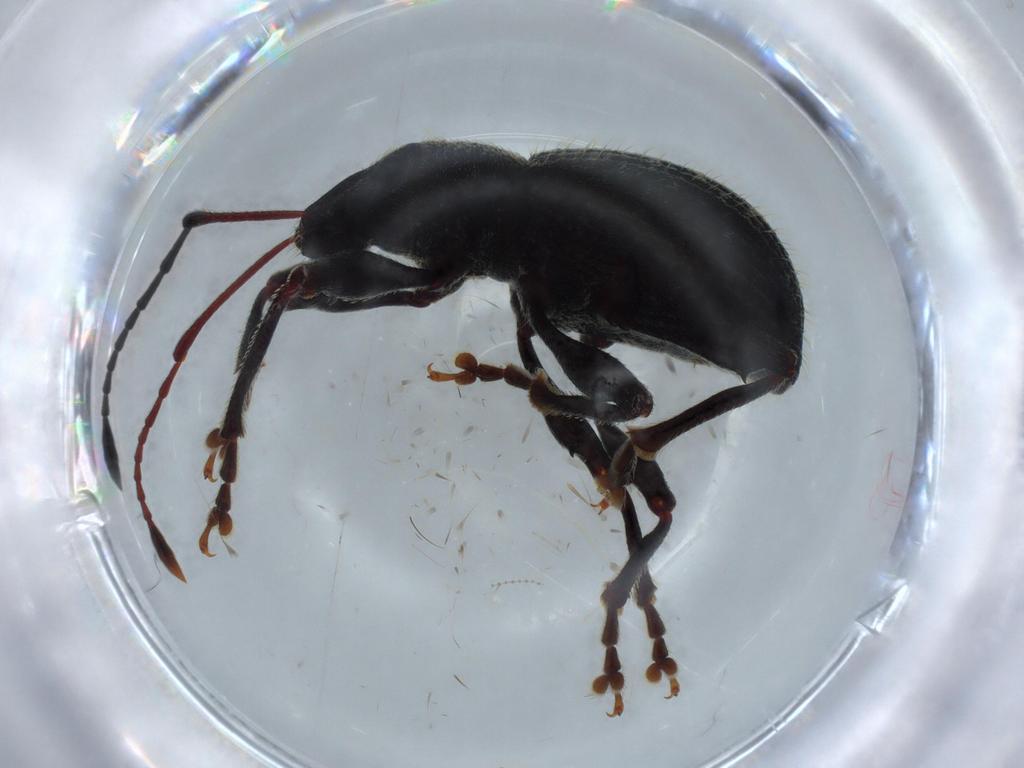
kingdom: Animalia
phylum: Arthropoda
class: Insecta
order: Coleoptera
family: Curculionidae
